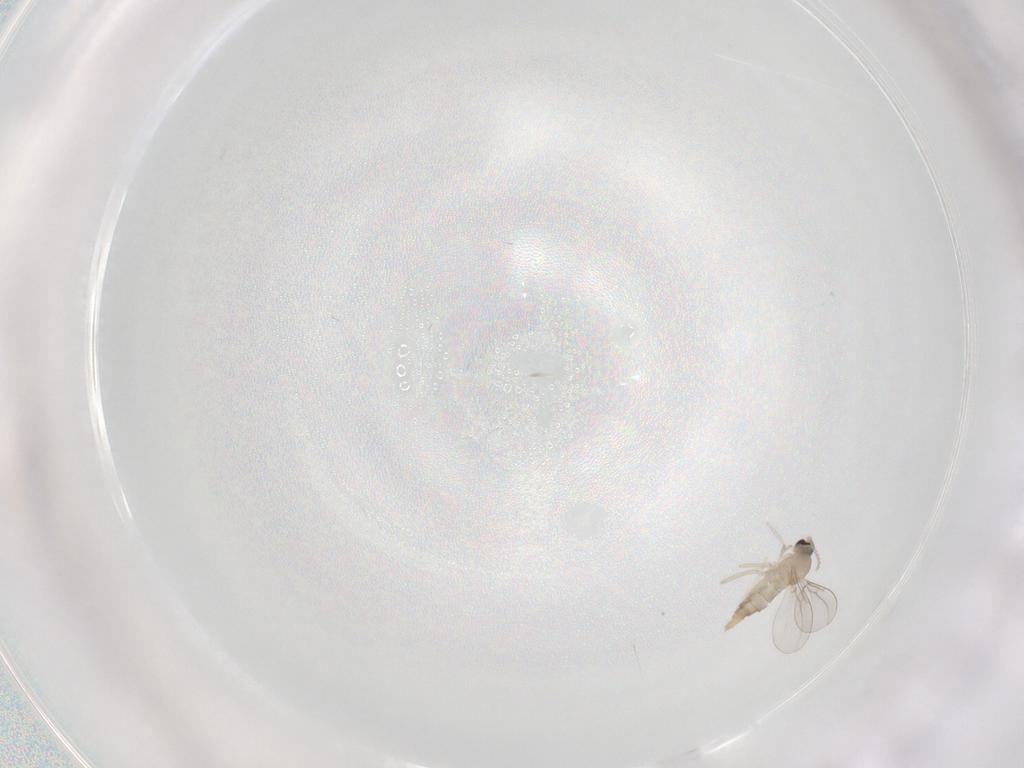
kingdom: Animalia
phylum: Arthropoda
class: Insecta
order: Diptera
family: Cecidomyiidae
